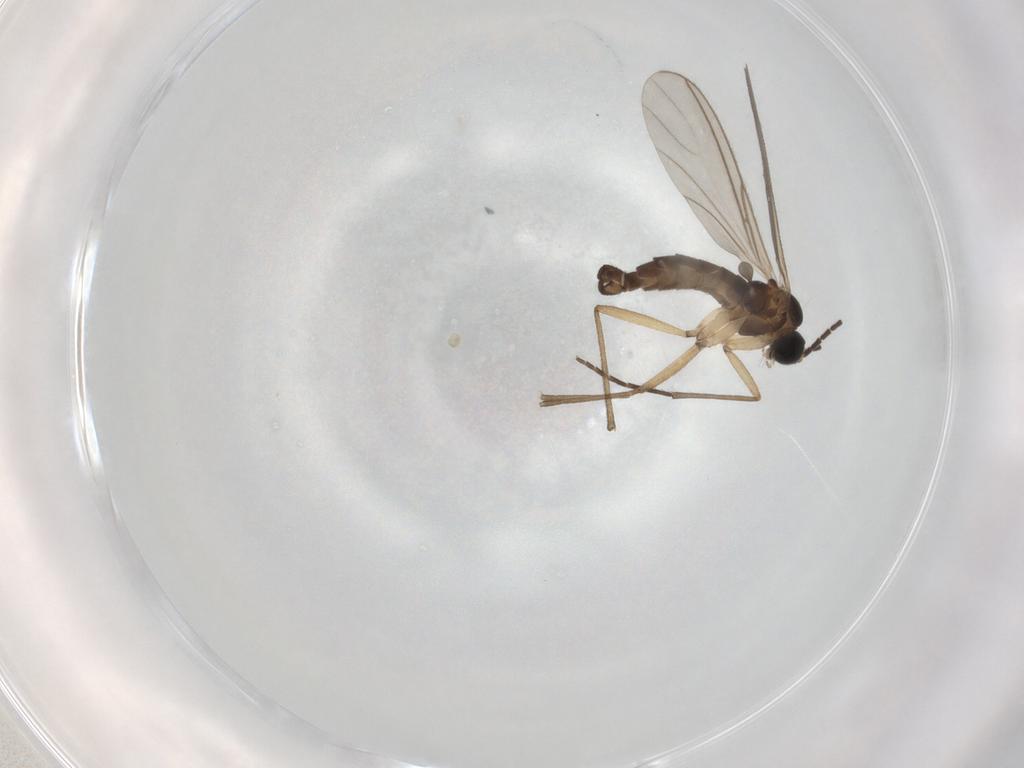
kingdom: Animalia
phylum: Arthropoda
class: Insecta
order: Diptera
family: Sciaridae
